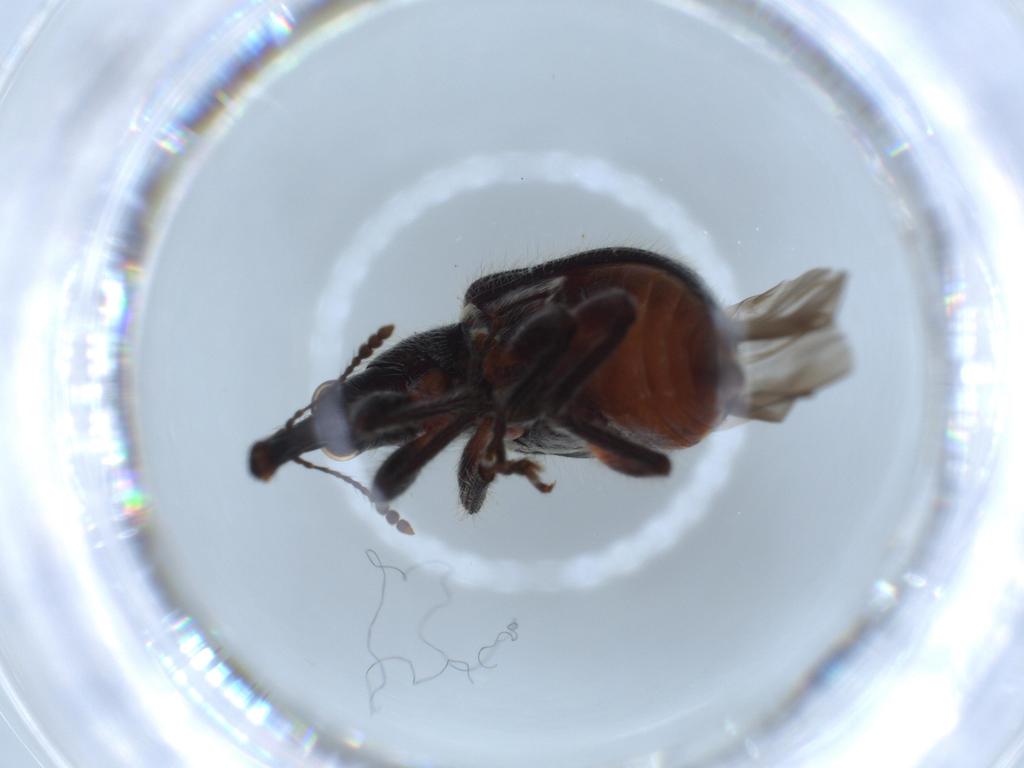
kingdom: Animalia
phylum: Arthropoda
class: Insecta
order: Coleoptera
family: Attelabidae
